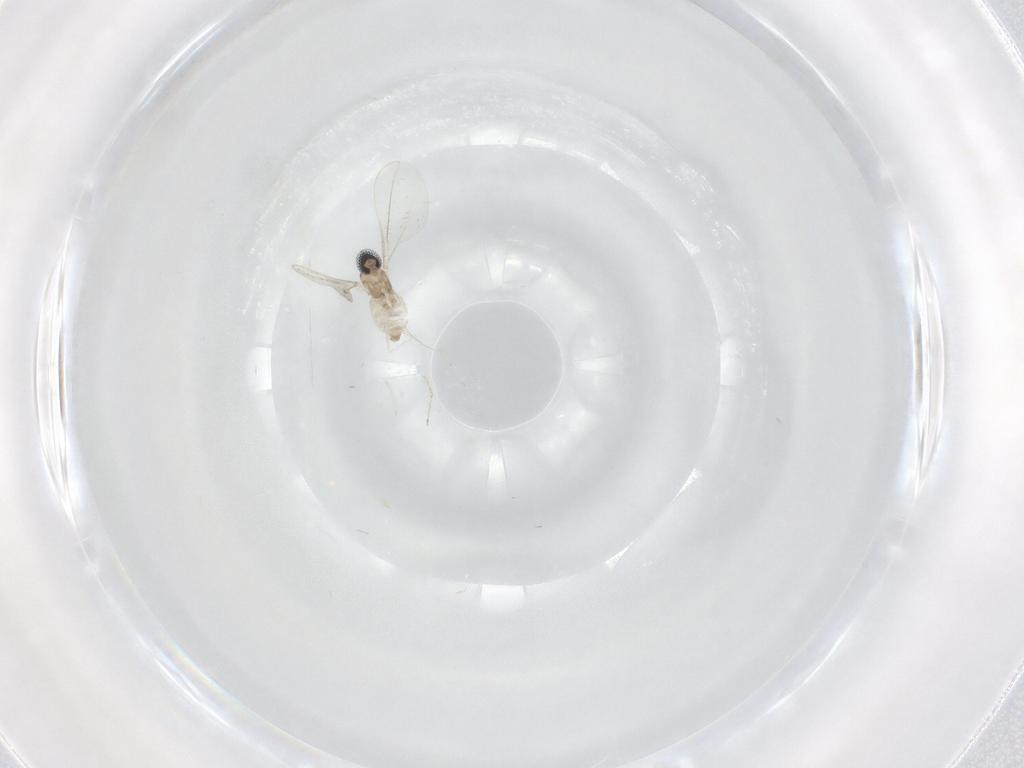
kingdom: Animalia
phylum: Arthropoda
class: Insecta
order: Diptera
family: Cecidomyiidae
